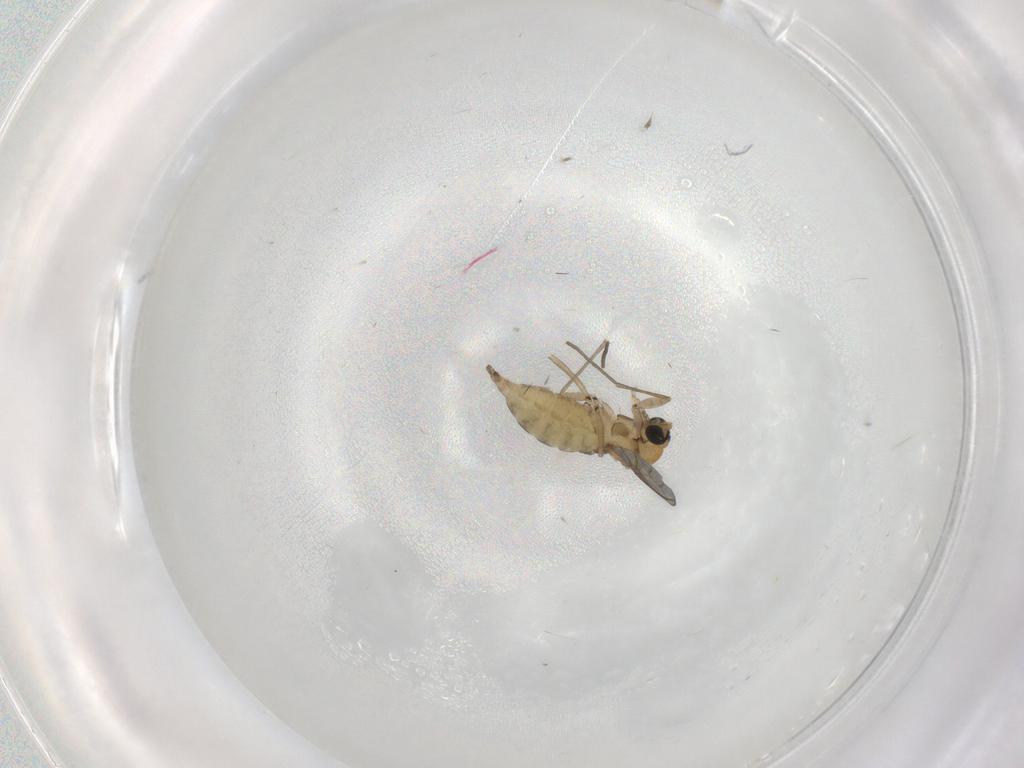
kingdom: Animalia
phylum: Arthropoda
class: Insecta
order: Diptera
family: Sciaridae
